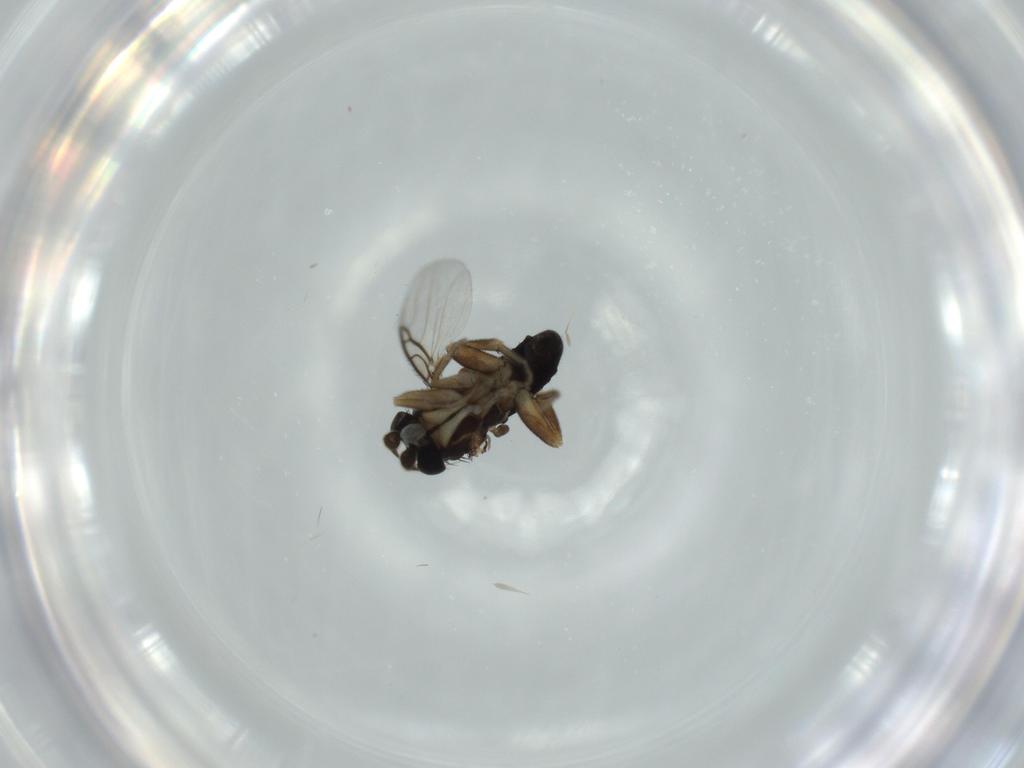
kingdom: Animalia
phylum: Arthropoda
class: Insecta
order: Diptera
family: Phoridae
